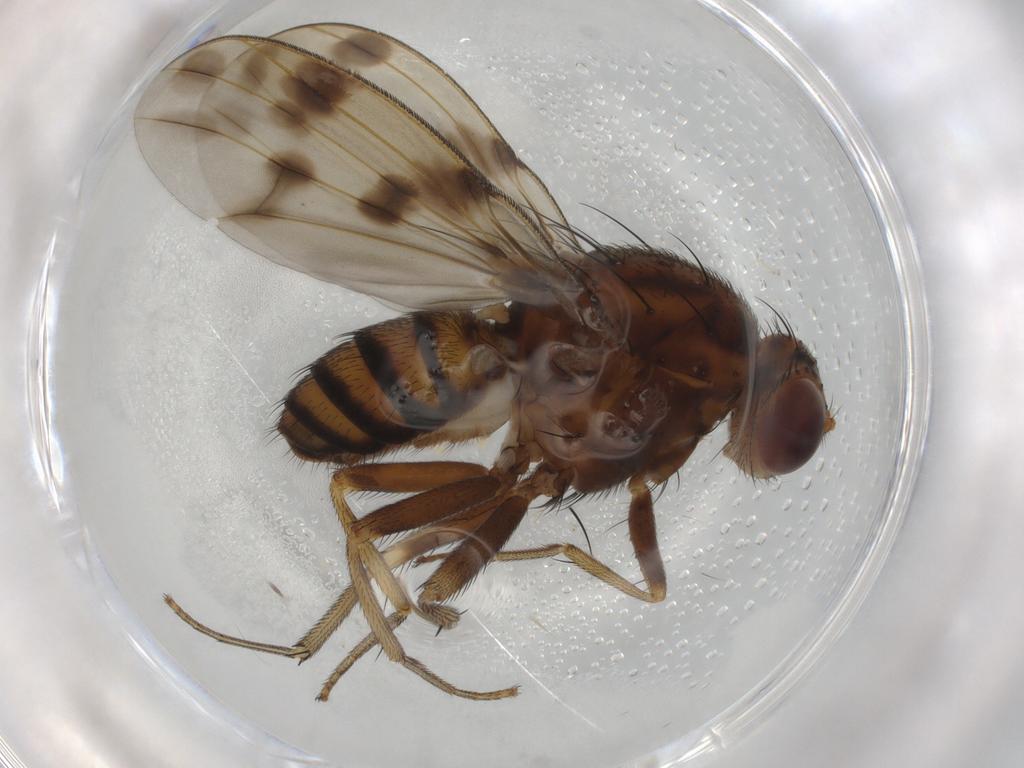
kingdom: Animalia
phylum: Arthropoda
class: Insecta
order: Diptera
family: Lauxaniidae
